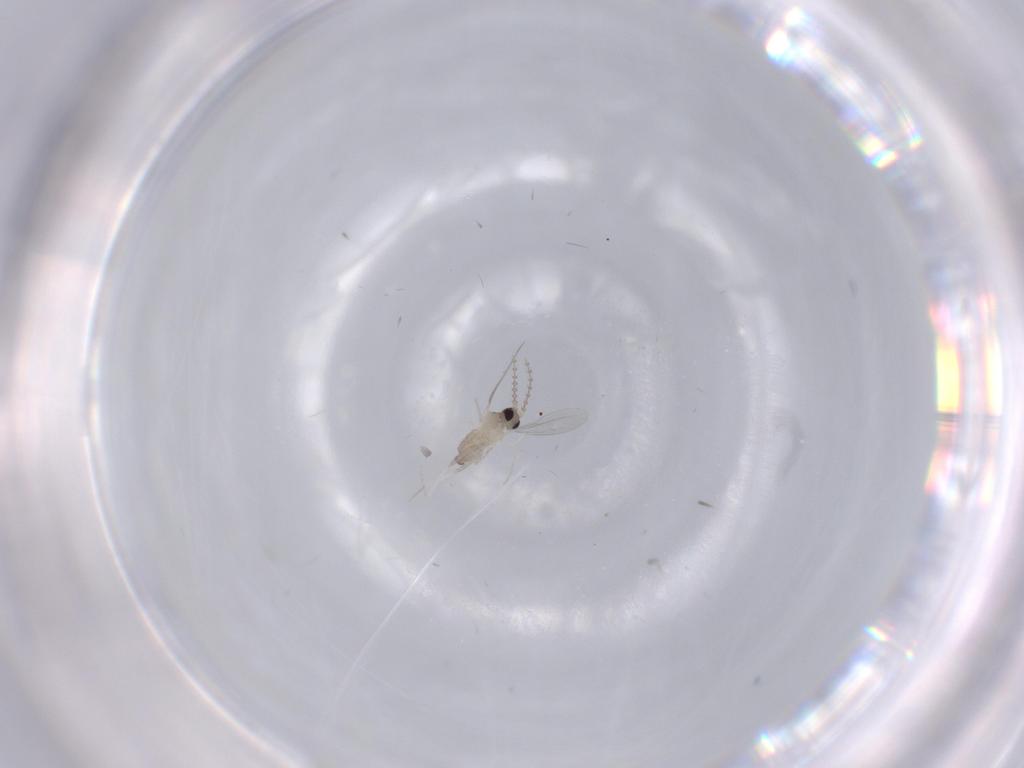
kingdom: Animalia
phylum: Arthropoda
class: Insecta
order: Diptera
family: Cecidomyiidae
